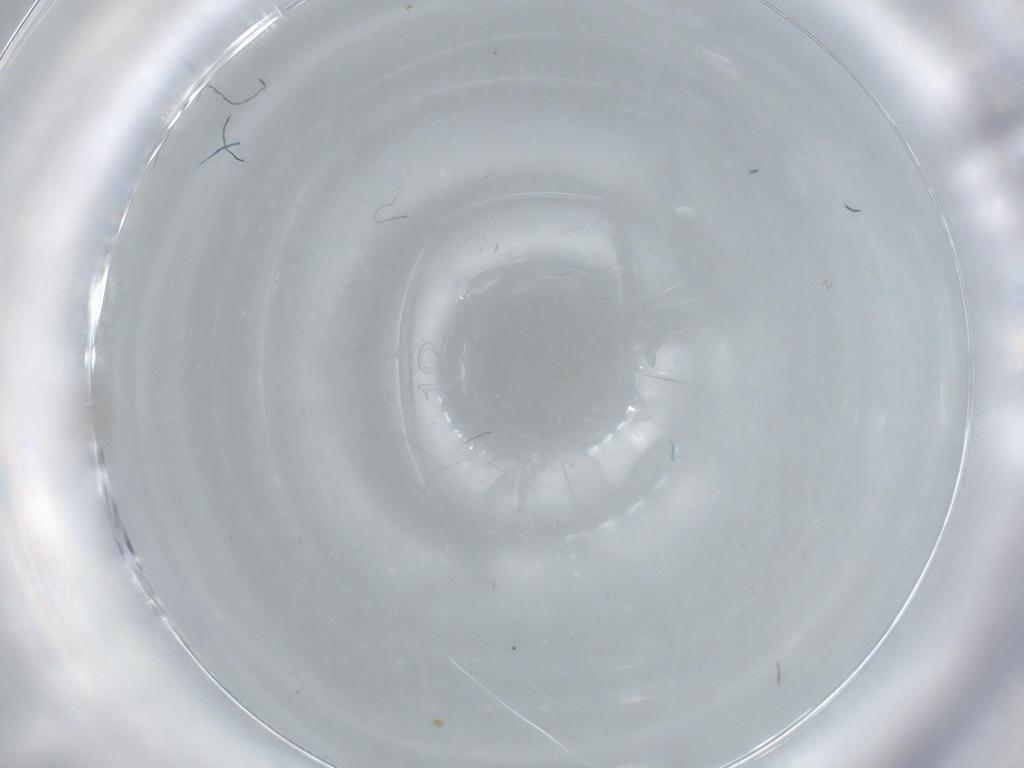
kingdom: Animalia
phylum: Arthropoda
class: Insecta
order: Diptera
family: Cecidomyiidae
